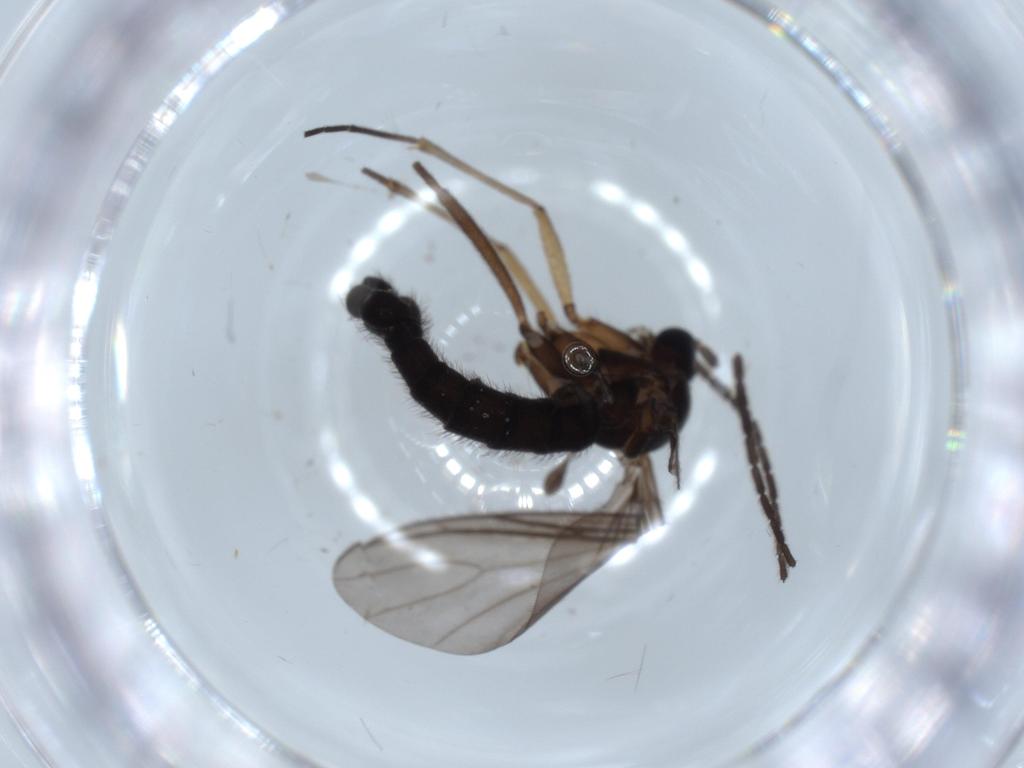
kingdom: Animalia
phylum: Arthropoda
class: Insecta
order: Diptera
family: Sciaridae
